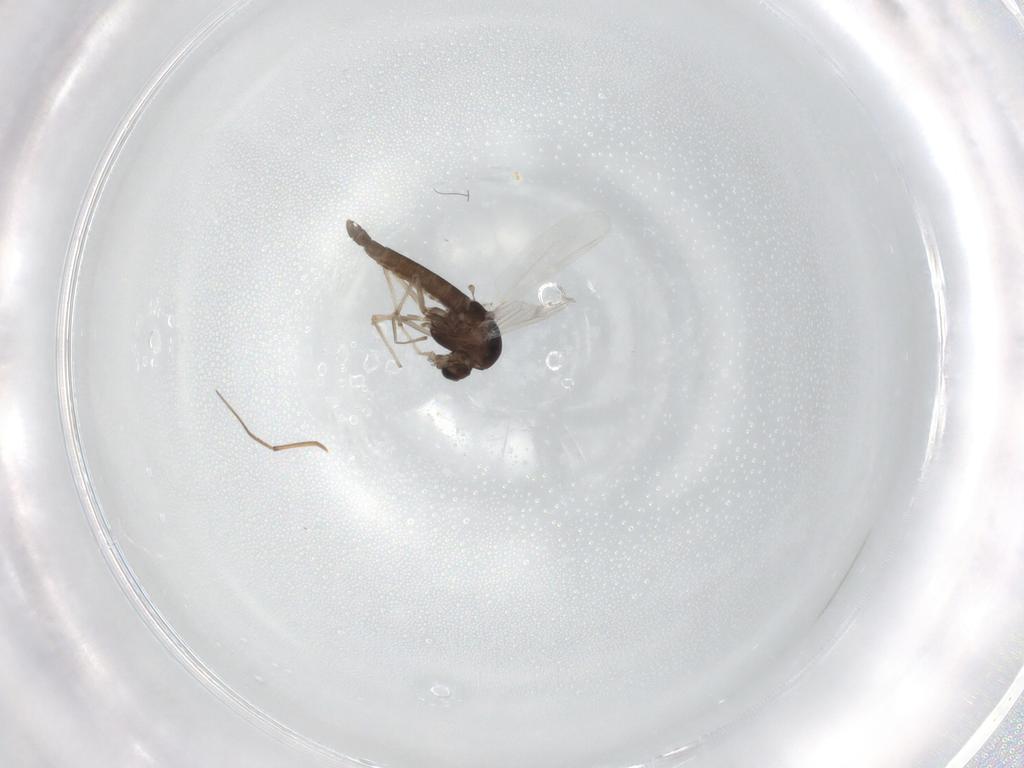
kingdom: Animalia
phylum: Arthropoda
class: Insecta
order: Diptera
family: Chironomidae
